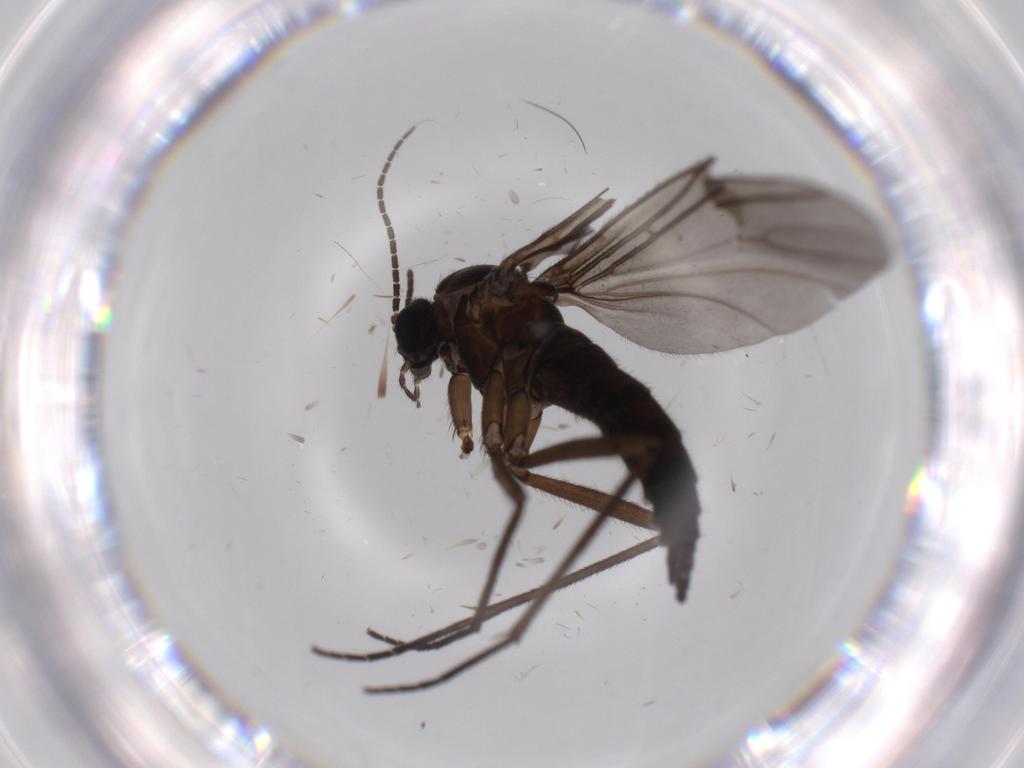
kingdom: Animalia
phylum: Arthropoda
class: Insecta
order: Diptera
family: Sciaridae
